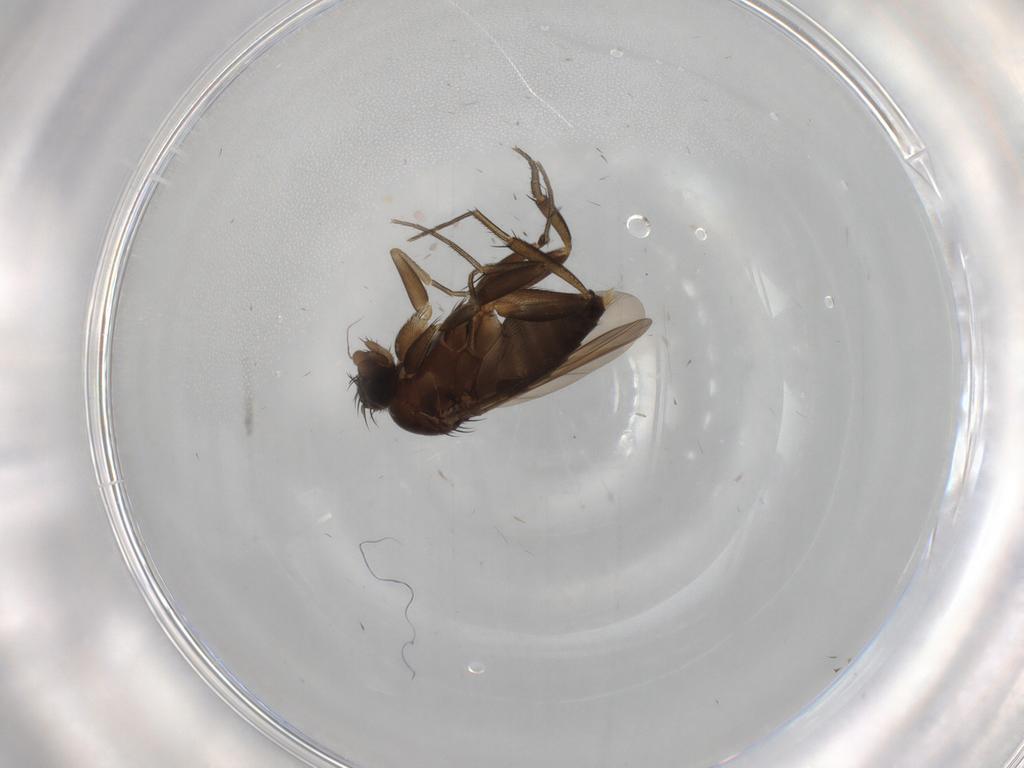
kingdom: Animalia
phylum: Arthropoda
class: Insecta
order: Diptera
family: Phoridae
